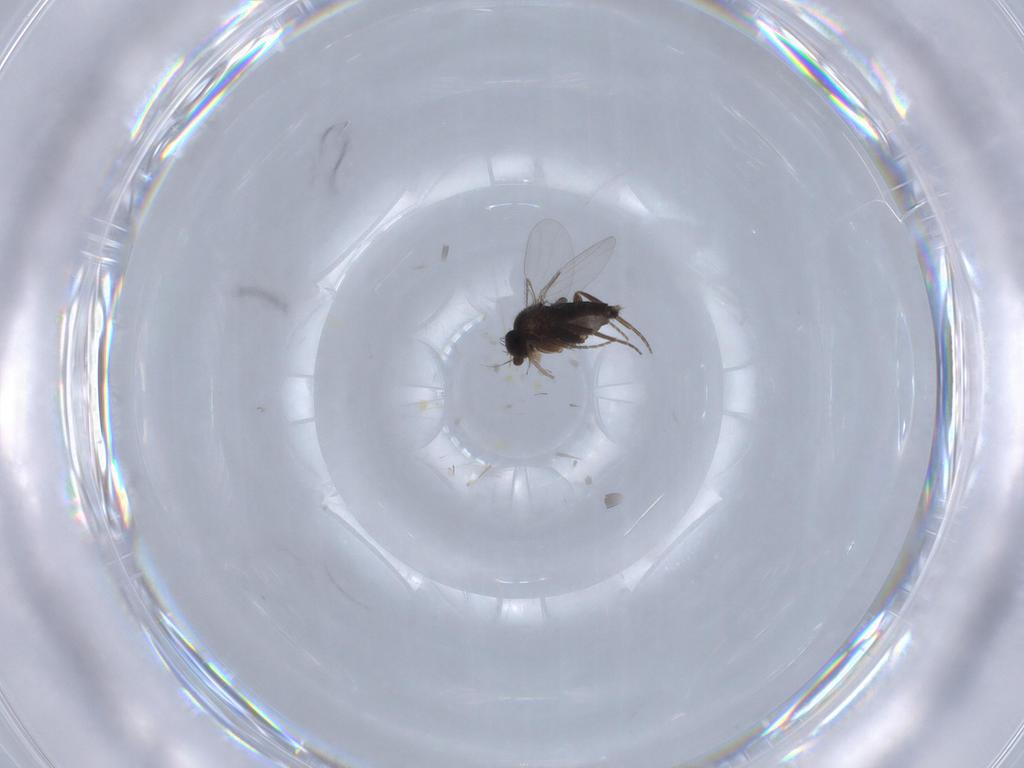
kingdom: Animalia
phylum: Arthropoda
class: Insecta
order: Diptera
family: Phoridae
